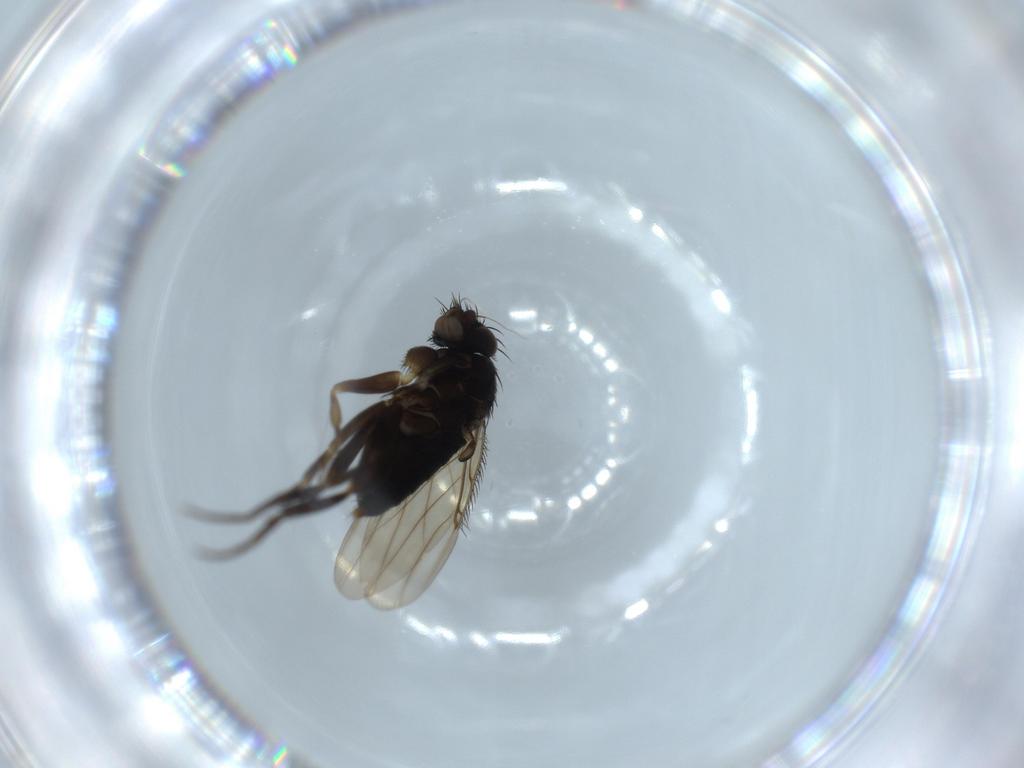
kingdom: Animalia
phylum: Arthropoda
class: Insecta
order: Diptera
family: Phoridae
